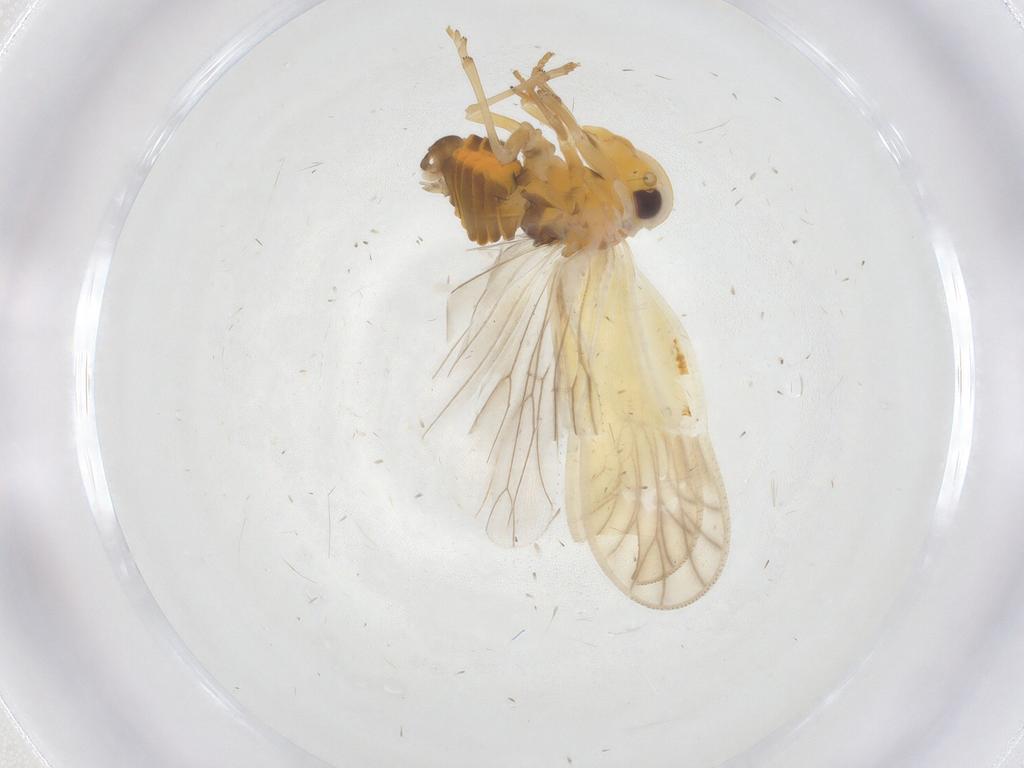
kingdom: Animalia
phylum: Arthropoda
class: Insecta
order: Hemiptera
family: Meenoplidae
